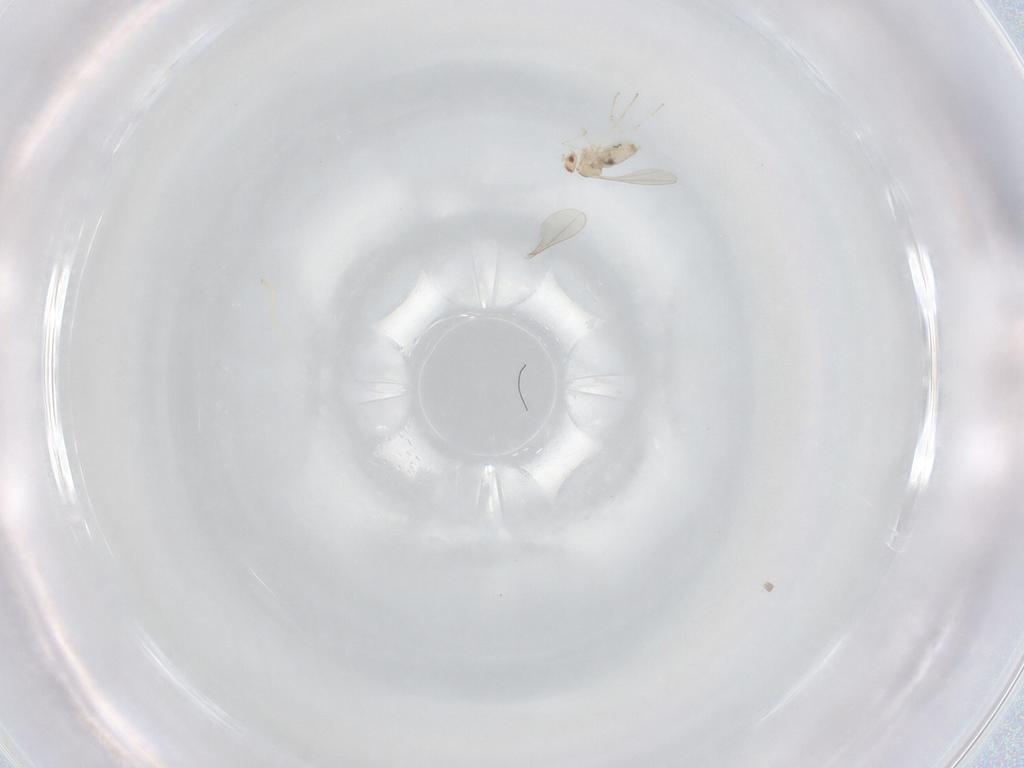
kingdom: Animalia
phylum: Arthropoda
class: Insecta
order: Diptera
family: Cecidomyiidae
